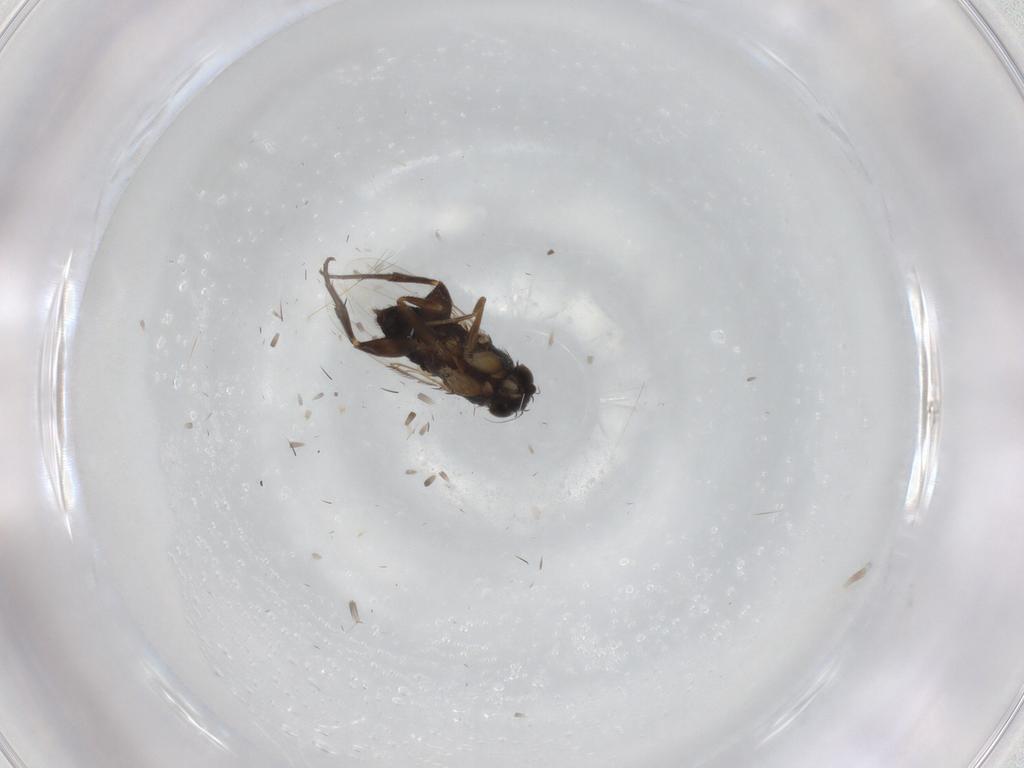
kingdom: Animalia
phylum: Arthropoda
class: Insecta
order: Diptera
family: Phoridae
